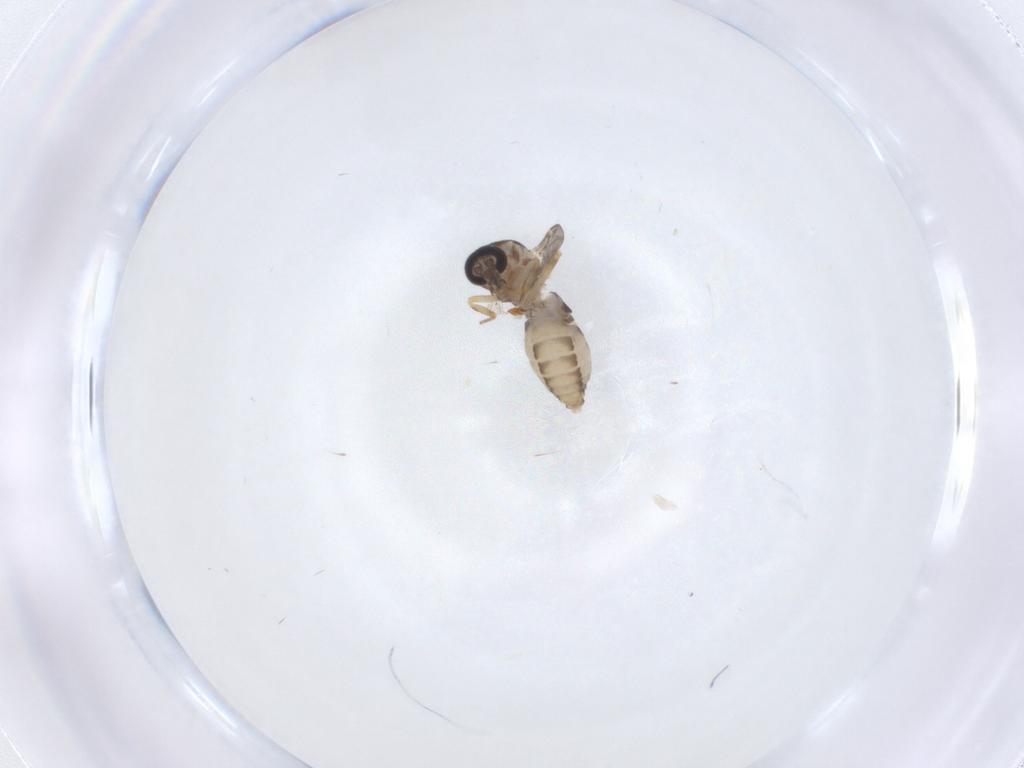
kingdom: Animalia
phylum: Arthropoda
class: Insecta
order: Diptera
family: Ceratopogonidae
